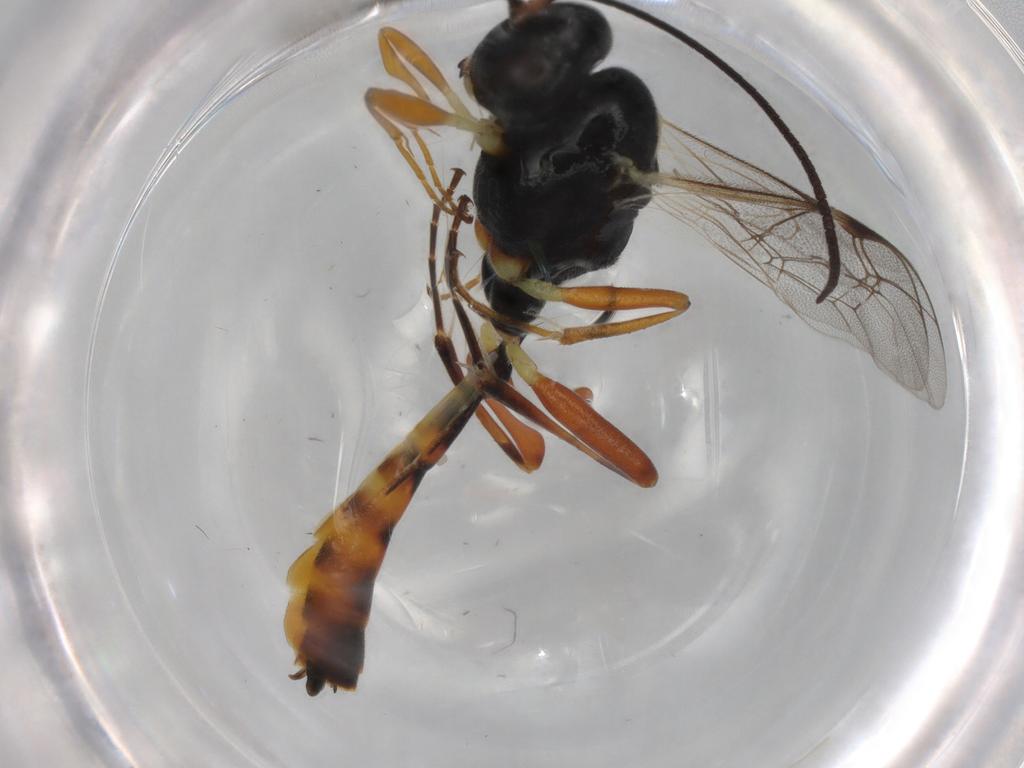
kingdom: Animalia
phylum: Arthropoda
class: Insecta
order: Hymenoptera
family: Ichneumonidae
